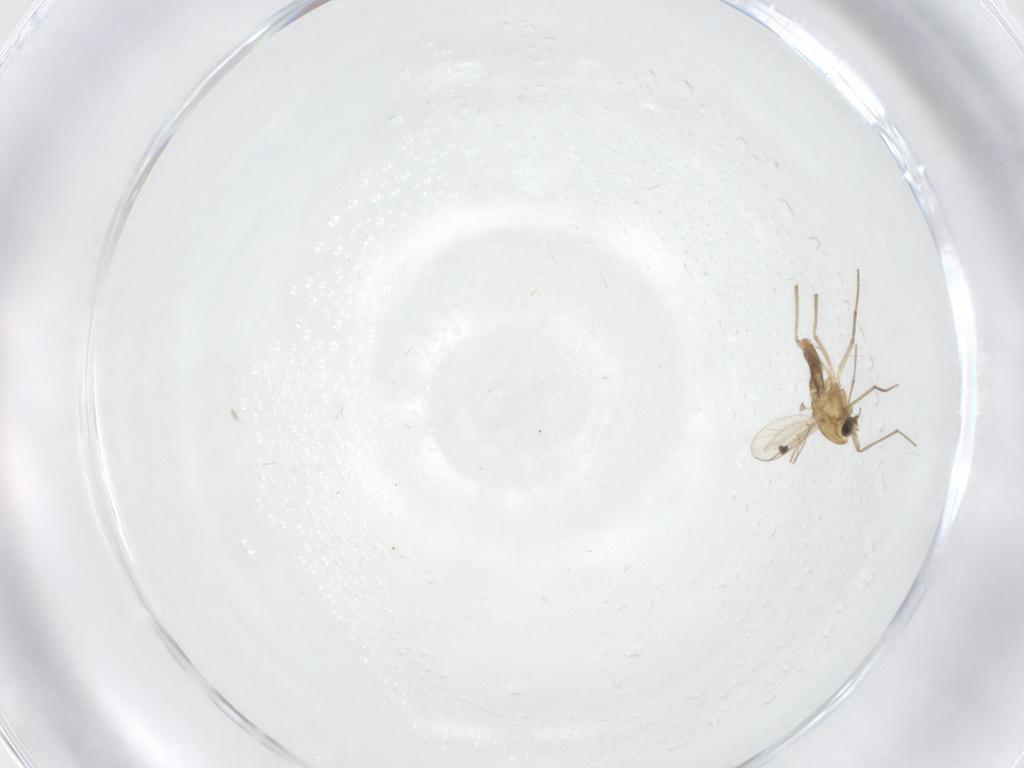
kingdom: Animalia
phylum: Arthropoda
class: Insecta
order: Diptera
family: Chironomidae
